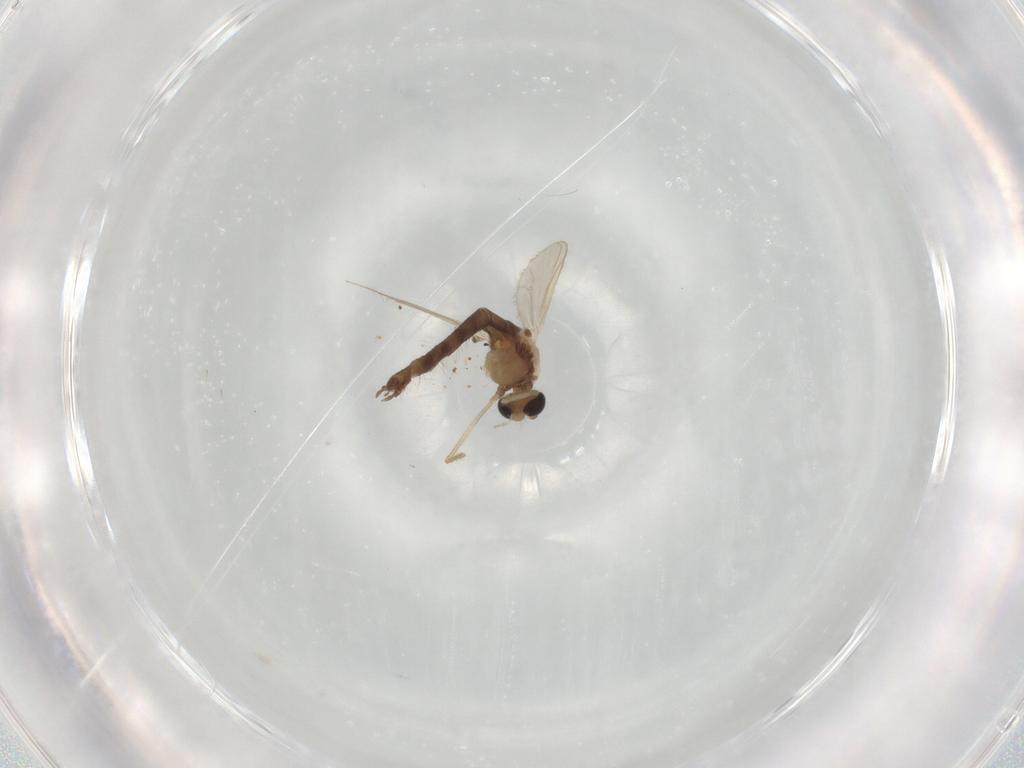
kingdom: Animalia
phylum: Arthropoda
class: Insecta
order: Diptera
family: Chironomidae
